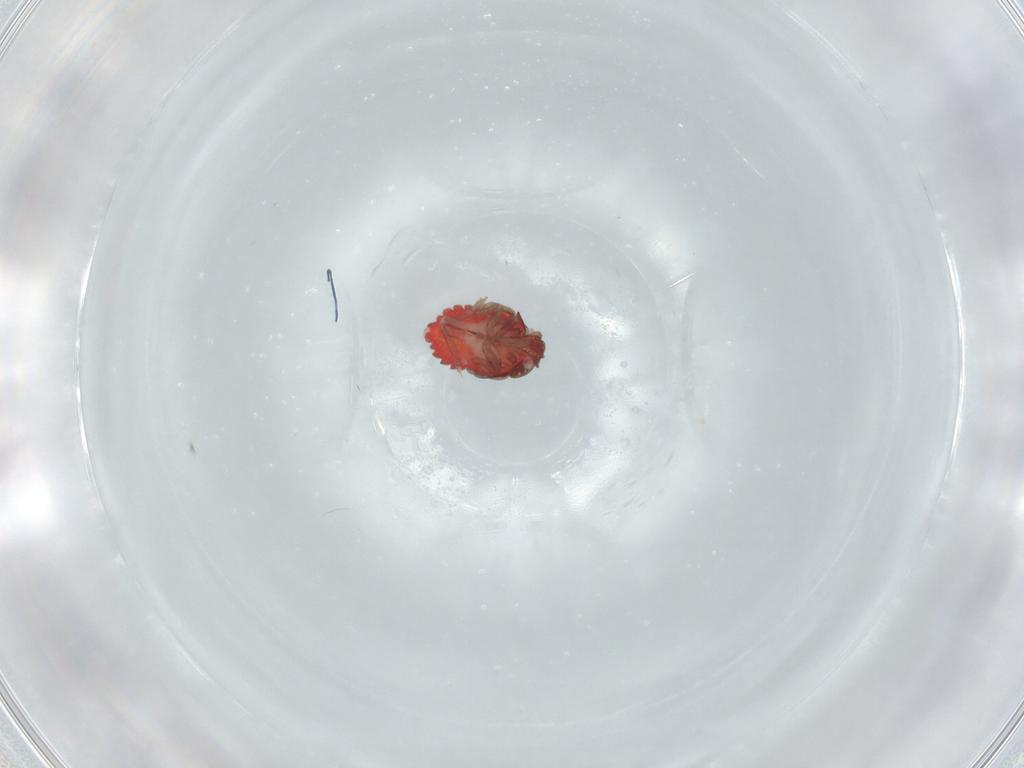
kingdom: Animalia
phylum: Arthropoda
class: Insecta
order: Hemiptera
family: Derbidae
